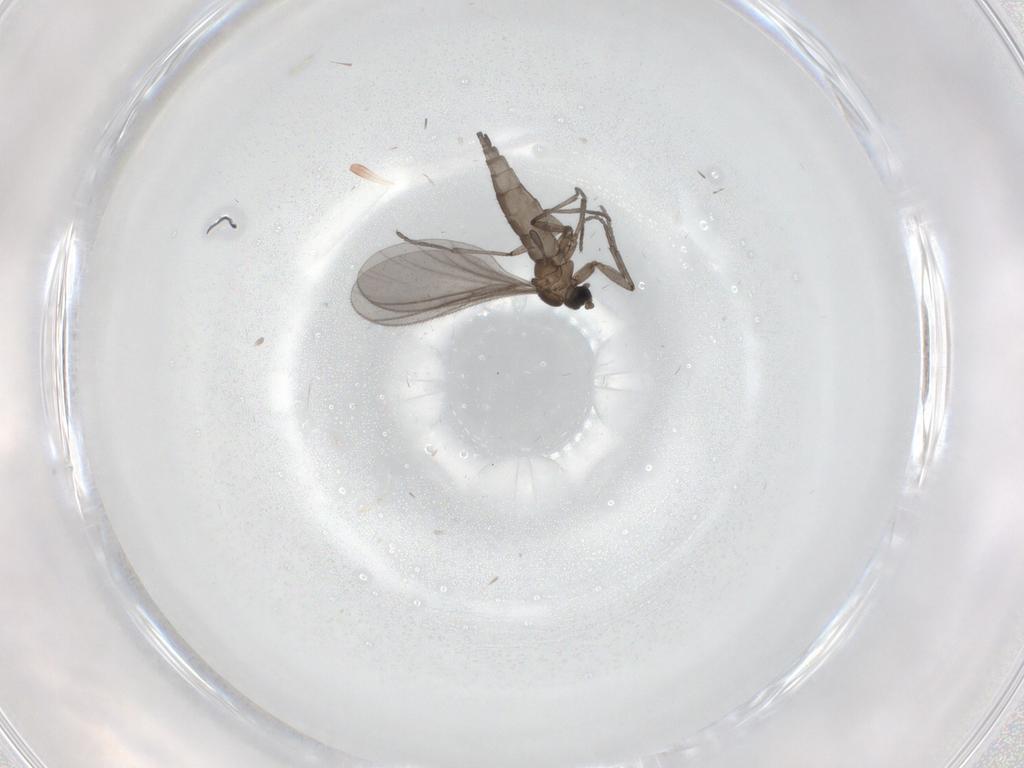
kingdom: Animalia
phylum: Arthropoda
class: Insecta
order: Diptera
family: Sciaridae
